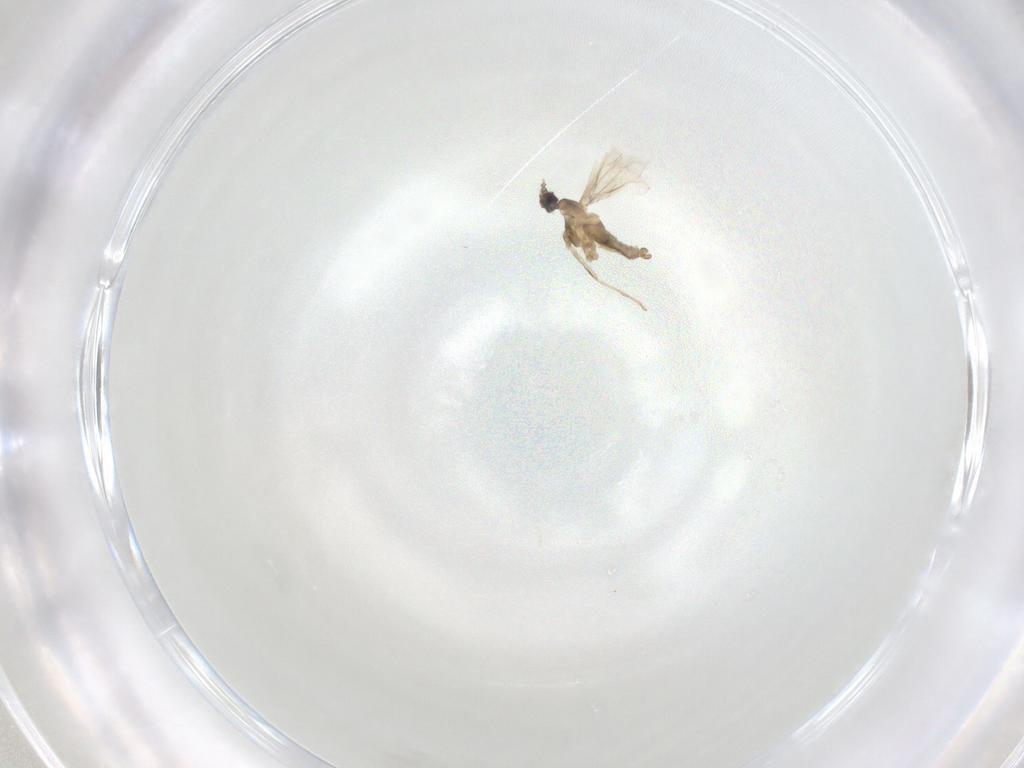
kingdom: Animalia
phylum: Arthropoda
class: Insecta
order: Diptera
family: Cecidomyiidae
